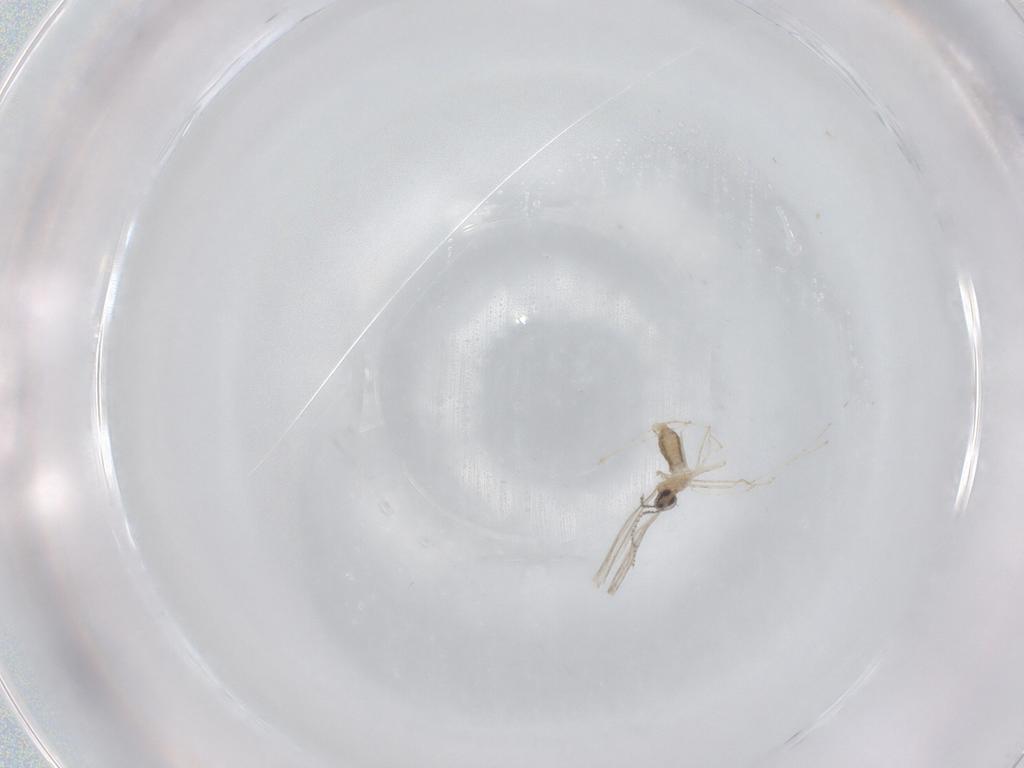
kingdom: Animalia
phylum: Arthropoda
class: Insecta
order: Diptera
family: Cecidomyiidae
